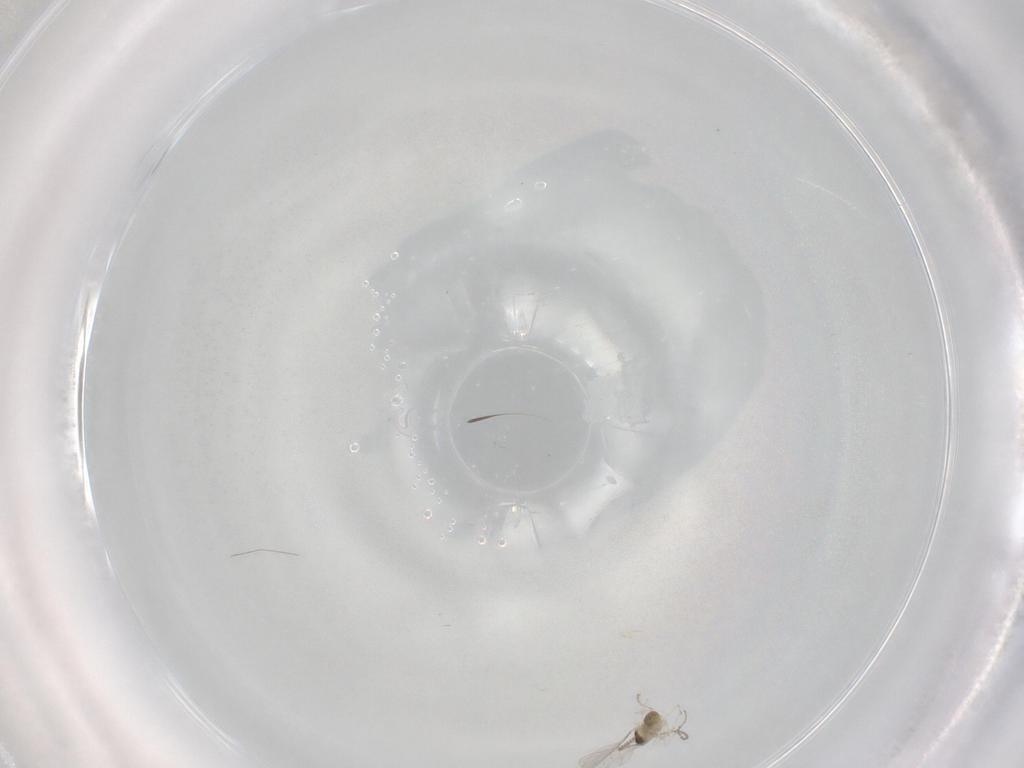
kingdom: Animalia
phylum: Arthropoda
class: Insecta
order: Diptera
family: Cecidomyiidae
